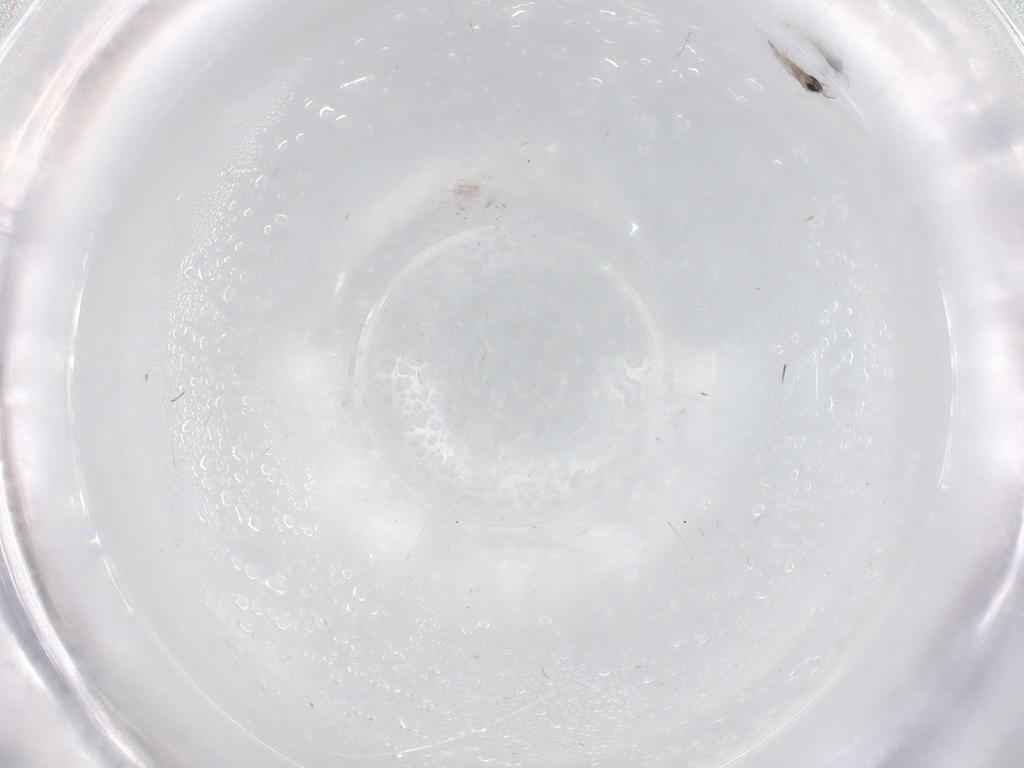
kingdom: Animalia
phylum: Arthropoda
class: Insecta
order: Diptera
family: Cecidomyiidae
